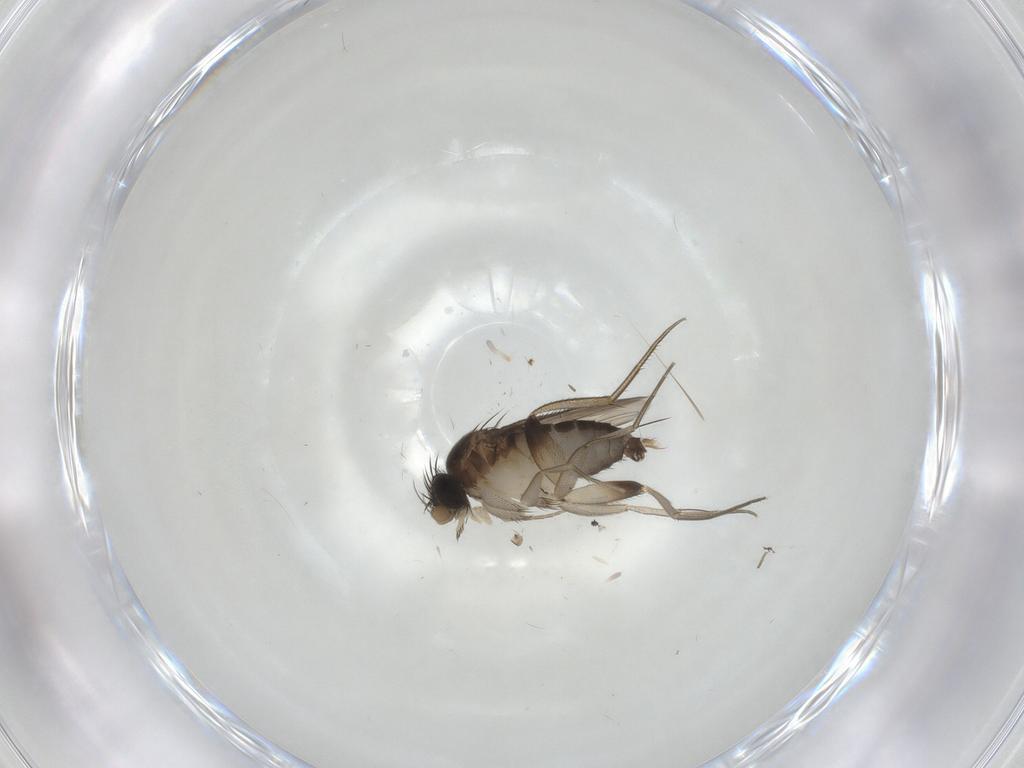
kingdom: Animalia
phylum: Arthropoda
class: Insecta
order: Diptera
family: Phoridae
